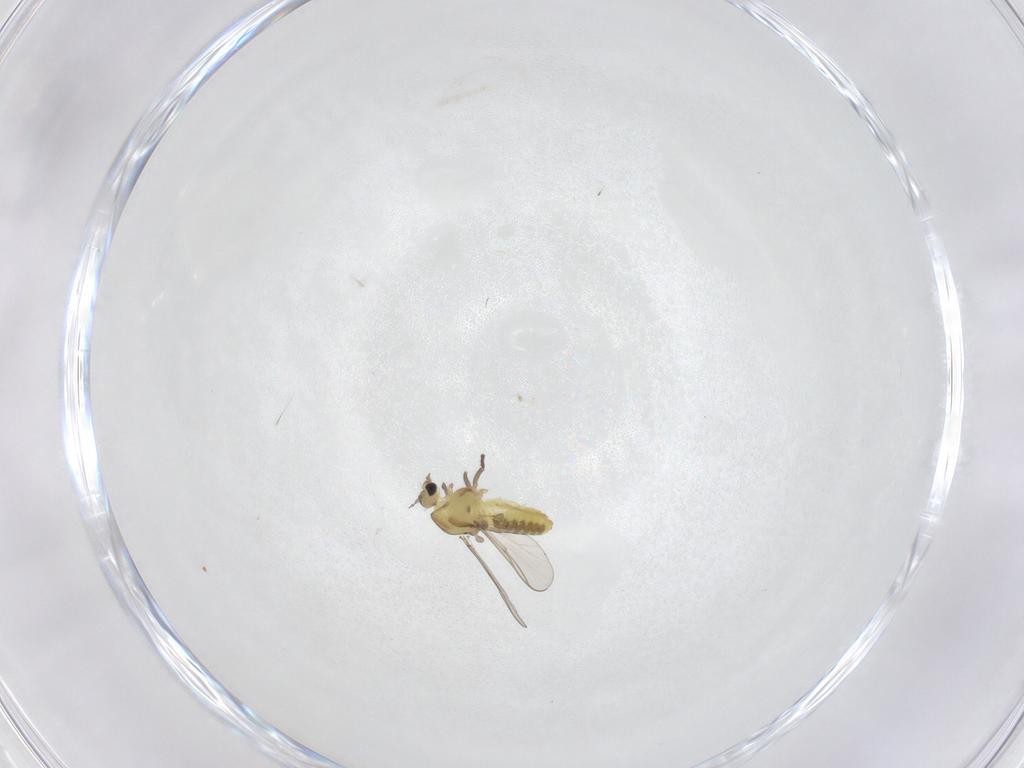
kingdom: Animalia
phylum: Arthropoda
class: Insecta
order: Diptera
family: Chironomidae
